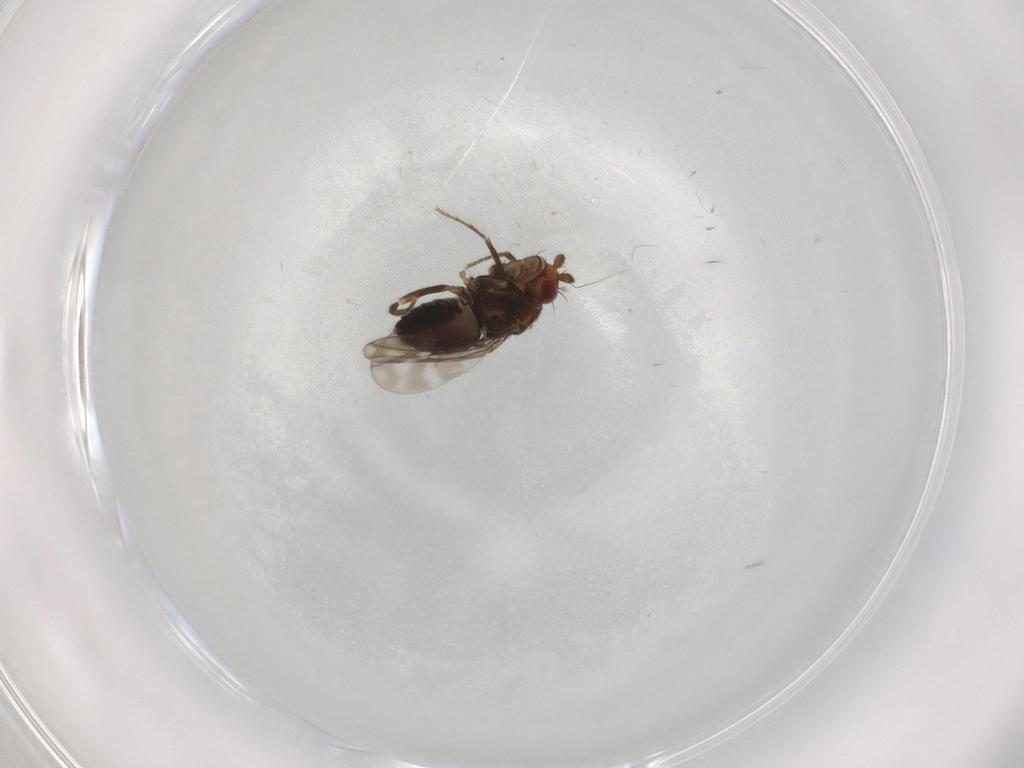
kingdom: Animalia
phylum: Arthropoda
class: Insecta
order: Diptera
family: Sphaeroceridae
